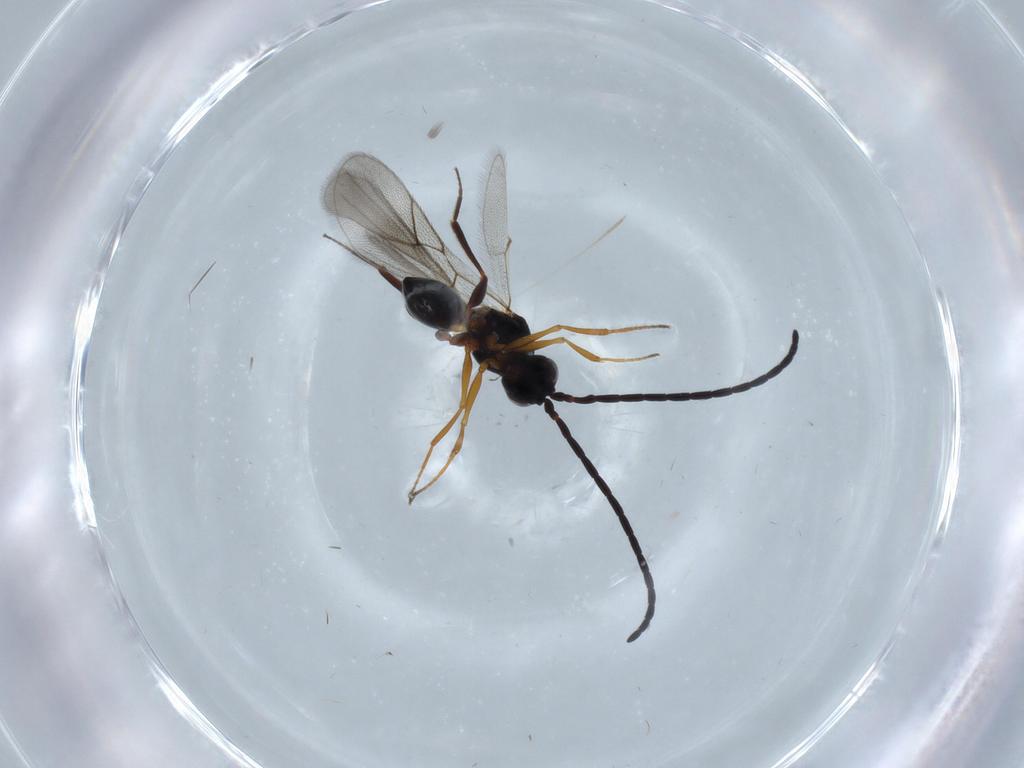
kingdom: Animalia
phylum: Arthropoda
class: Insecta
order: Hymenoptera
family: Figitidae
